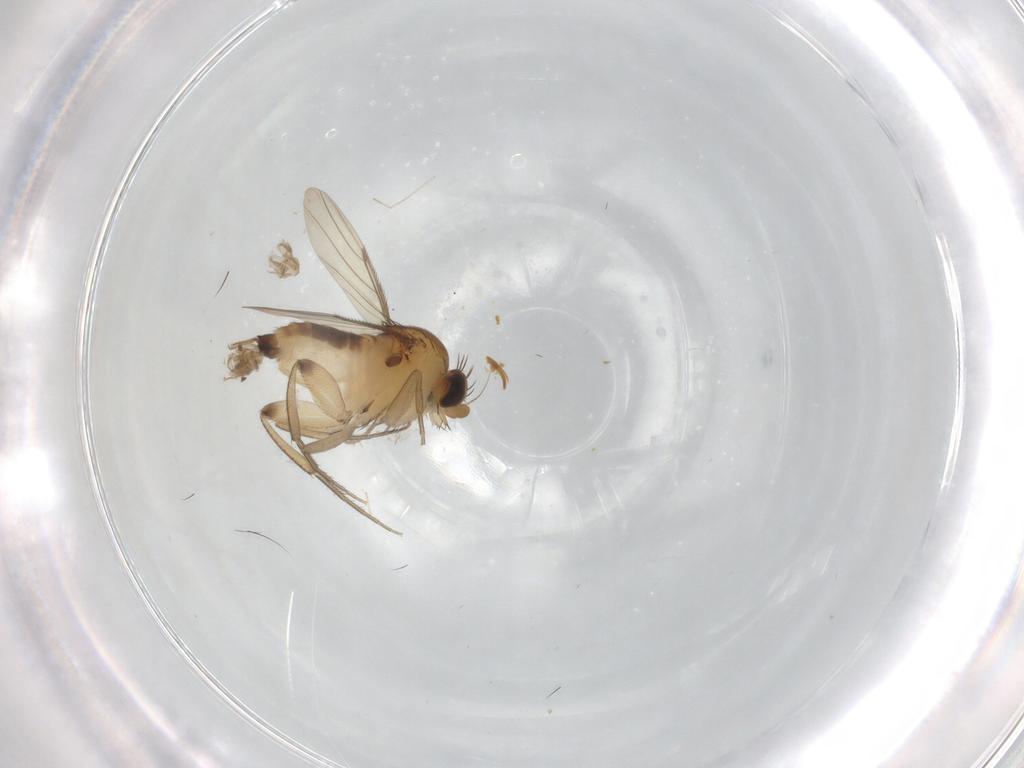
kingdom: Animalia
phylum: Arthropoda
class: Insecta
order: Diptera
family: Phoridae
